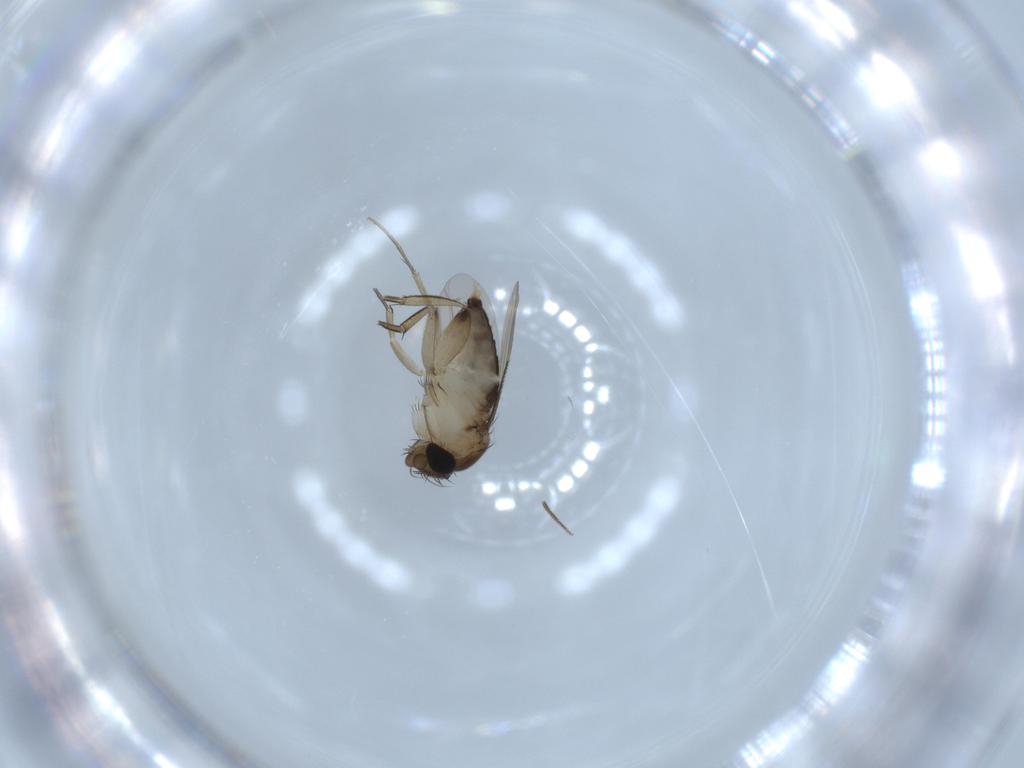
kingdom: Animalia
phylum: Arthropoda
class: Insecta
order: Diptera
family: Phoridae
